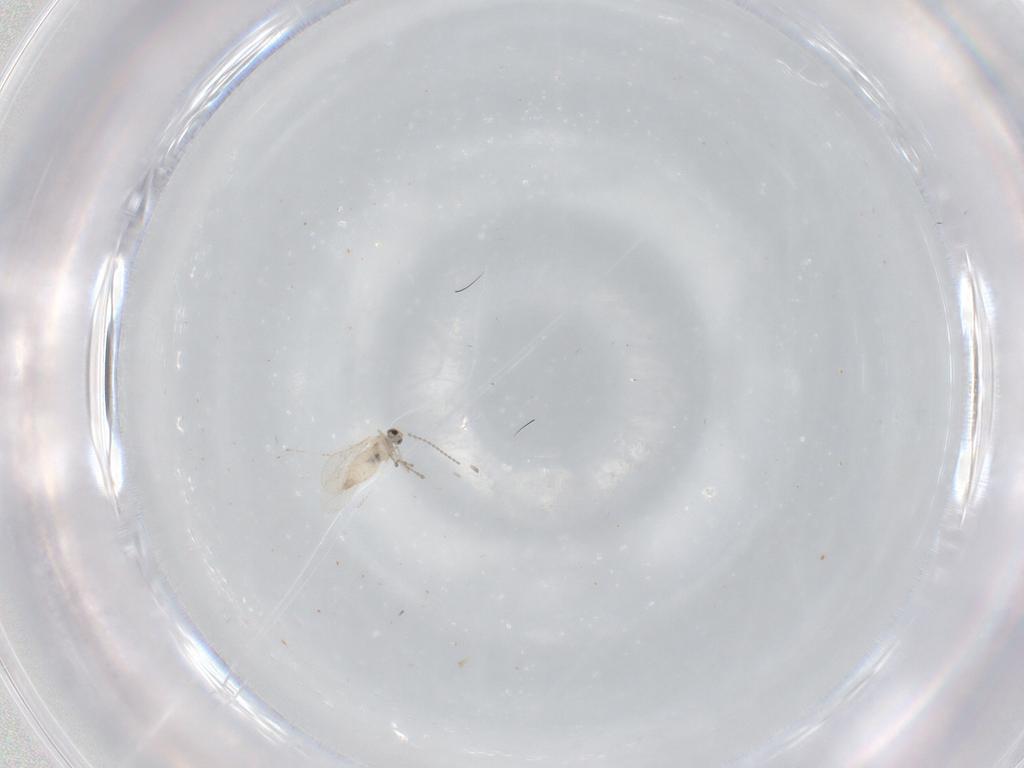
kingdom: Animalia
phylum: Arthropoda
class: Insecta
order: Diptera
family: Cecidomyiidae
